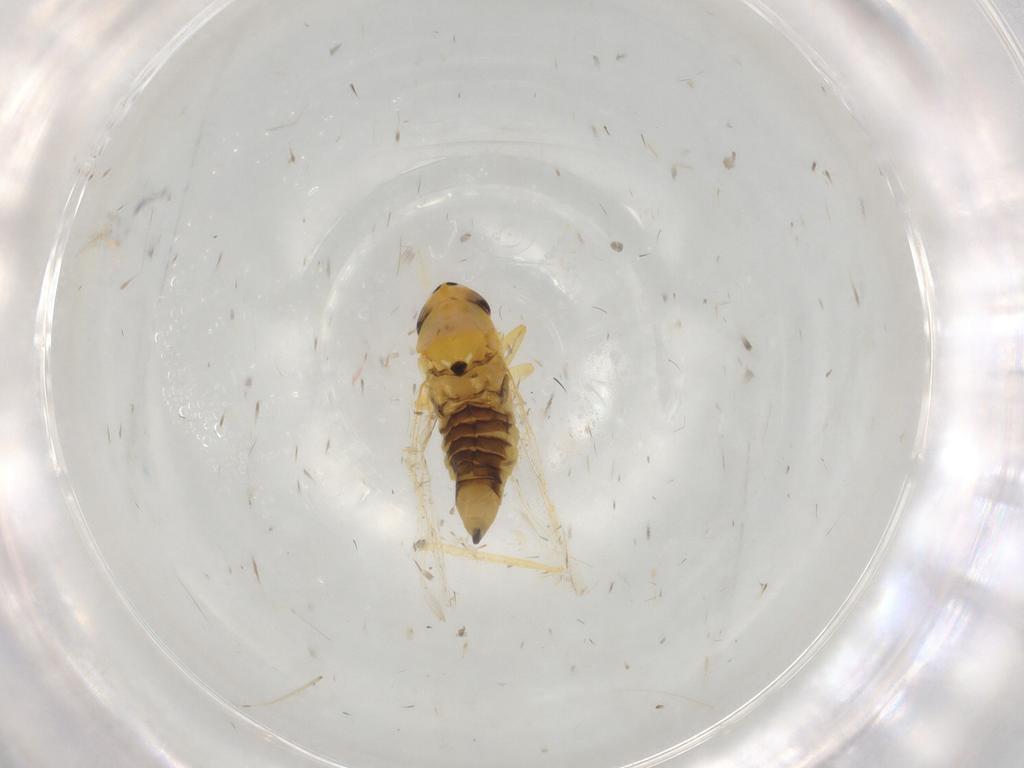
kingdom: Animalia
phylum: Arthropoda
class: Insecta
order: Hemiptera
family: Cicadellidae
